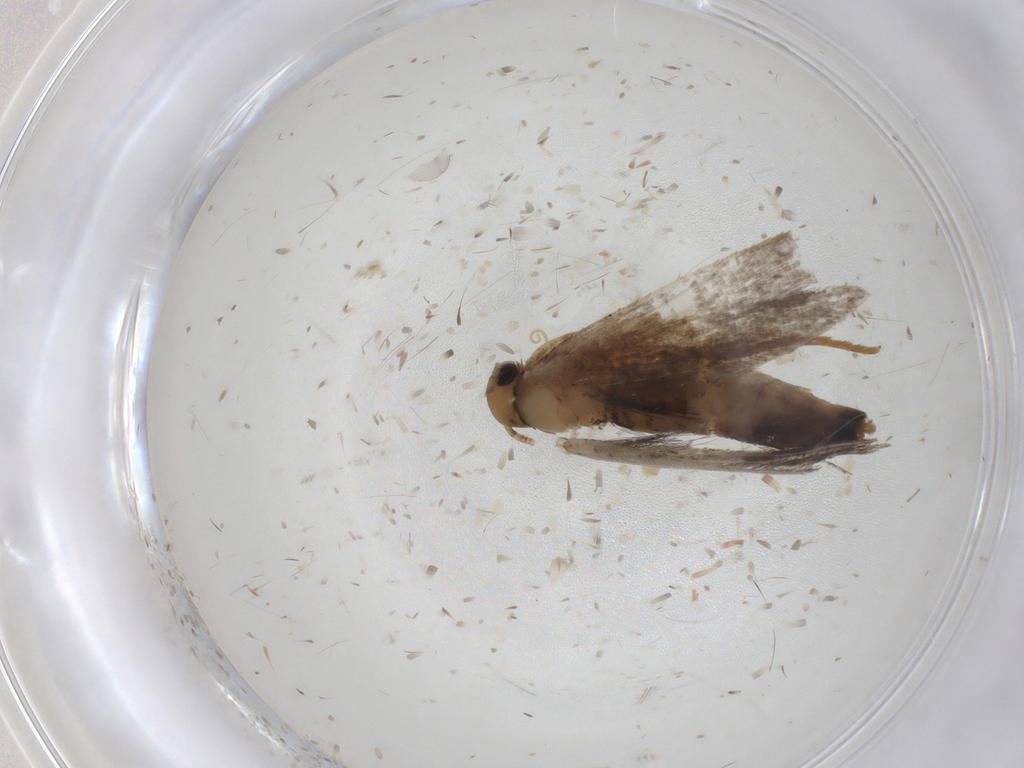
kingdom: Animalia
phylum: Arthropoda
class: Insecta
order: Lepidoptera
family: Gelechiidae
